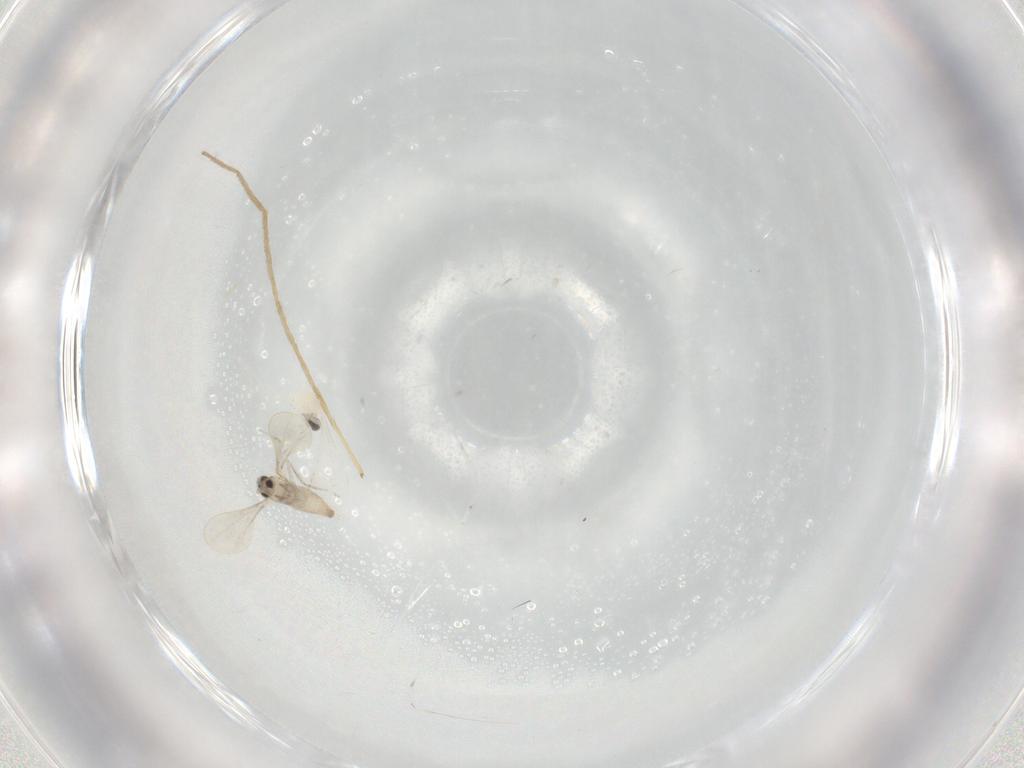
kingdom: Animalia
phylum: Arthropoda
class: Insecta
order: Diptera
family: Cecidomyiidae
